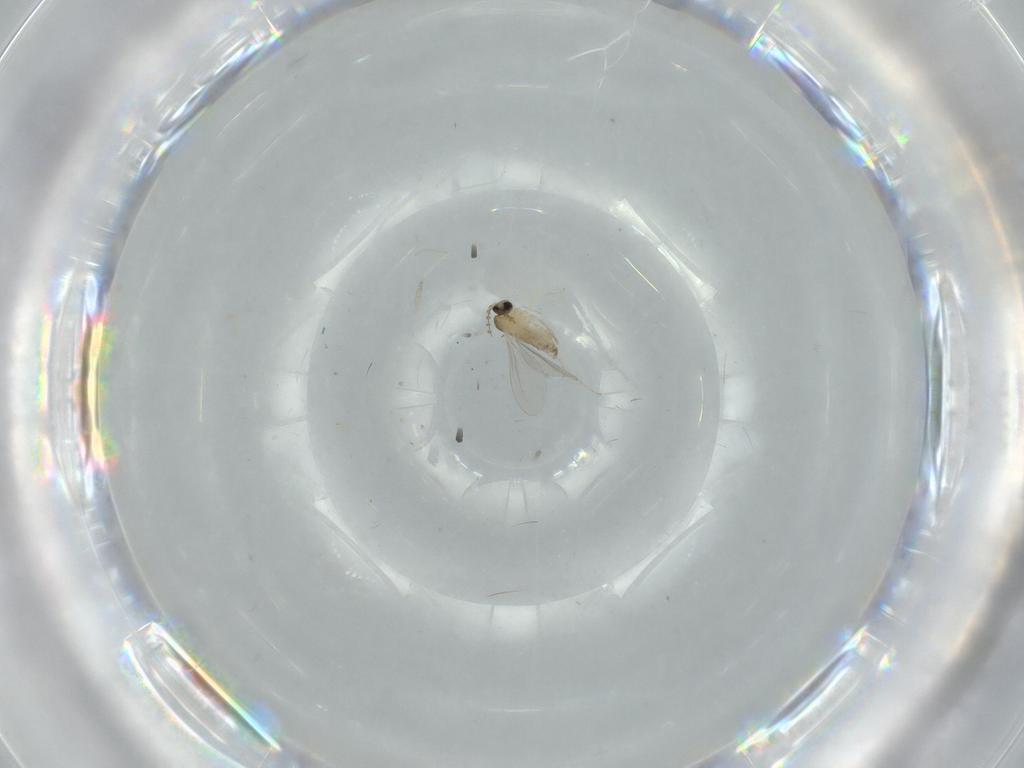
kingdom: Animalia
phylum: Arthropoda
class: Insecta
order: Diptera
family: Cecidomyiidae
